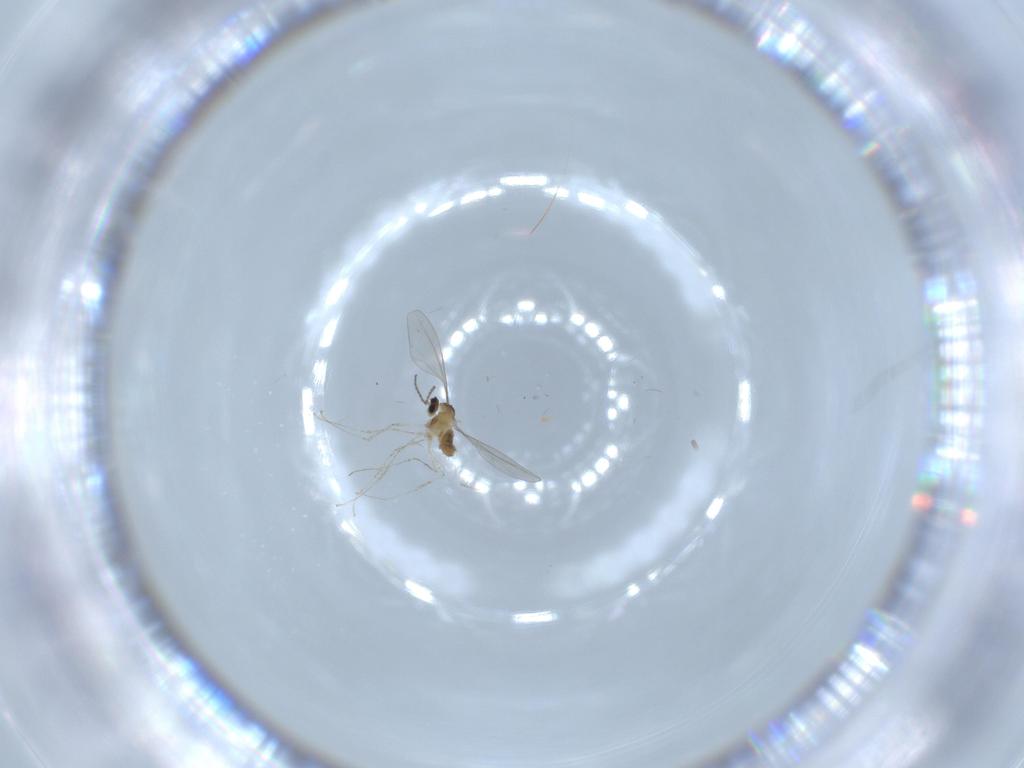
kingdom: Animalia
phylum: Arthropoda
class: Insecta
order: Diptera
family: Cecidomyiidae
